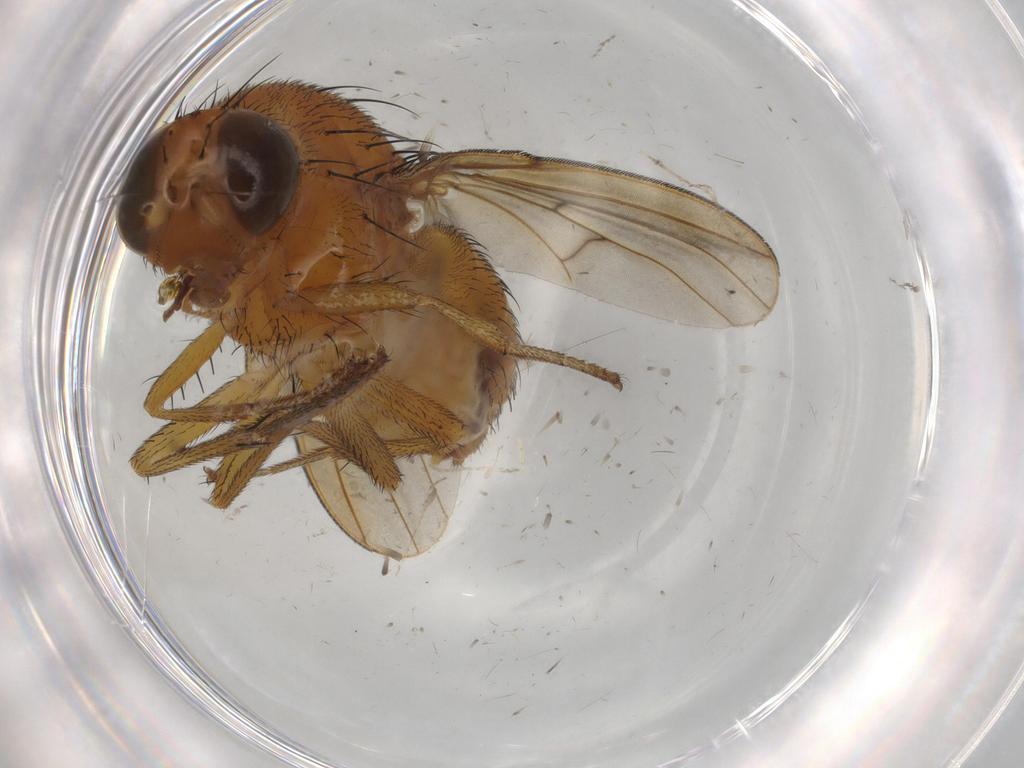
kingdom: Animalia
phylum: Arthropoda
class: Insecta
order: Diptera
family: Cecidomyiidae
